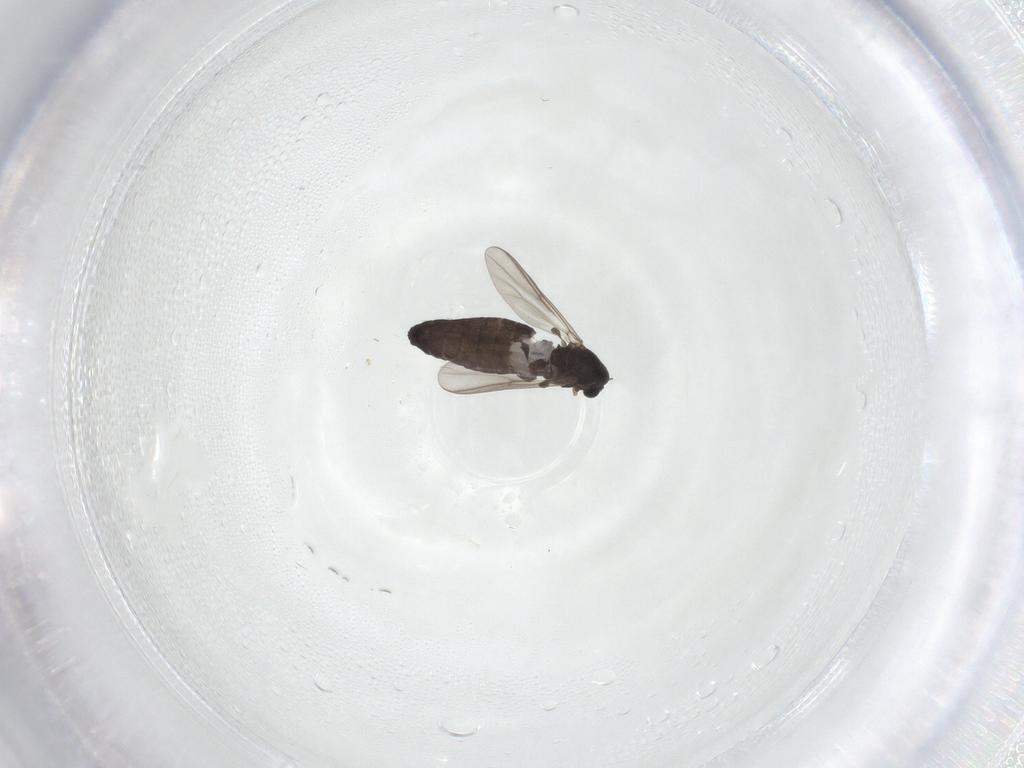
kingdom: Animalia
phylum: Arthropoda
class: Insecta
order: Diptera
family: Chironomidae
